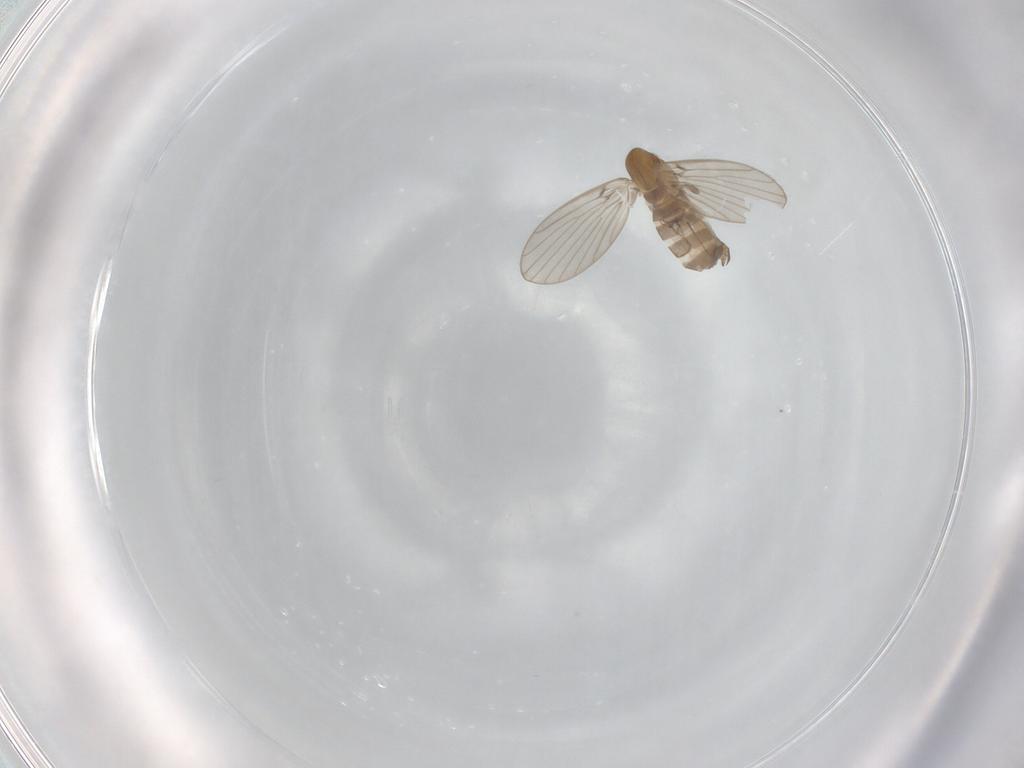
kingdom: Animalia
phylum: Arthropoda
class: Insecta
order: Diptera
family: Psychodidae
